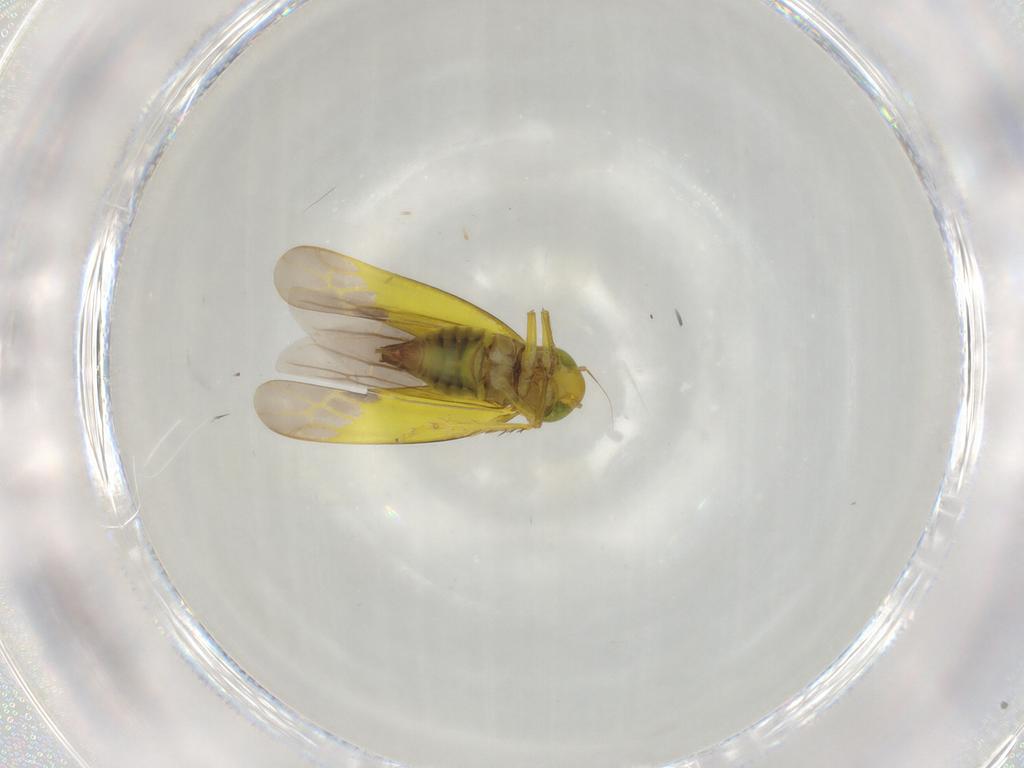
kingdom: Animalia
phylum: Arthropoda
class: Insecta
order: Hemiptera
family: Cicadellidae
